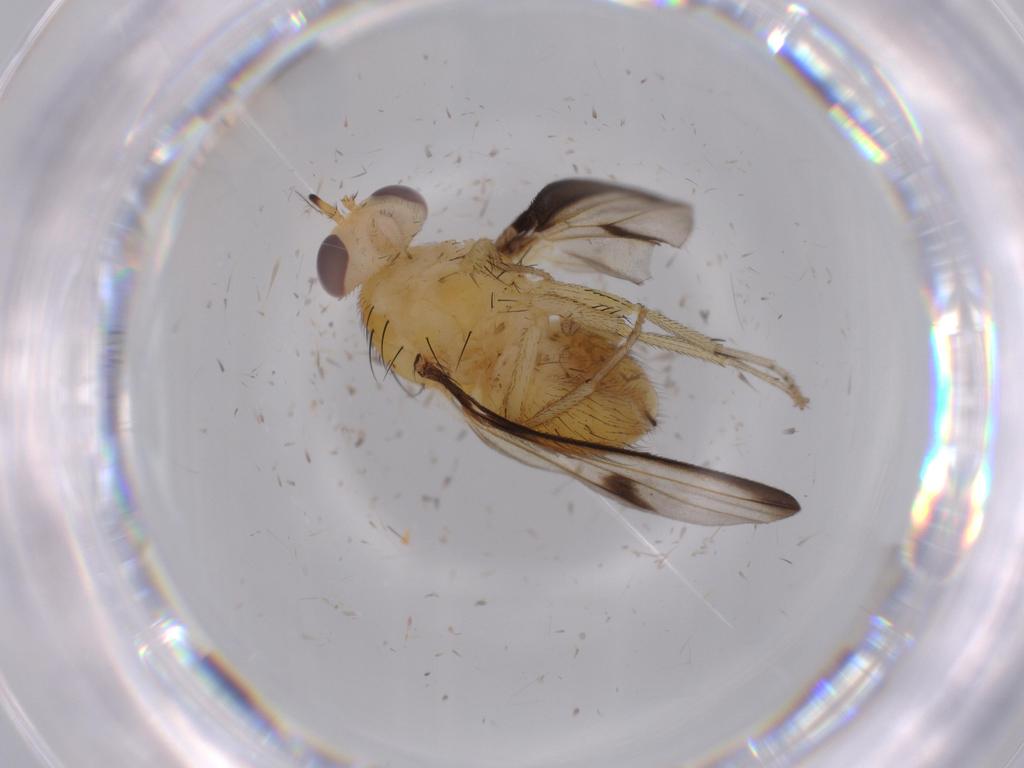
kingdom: Animalia
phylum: Arthropoda
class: Insecta
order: Diptera
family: Lauxaniidae
